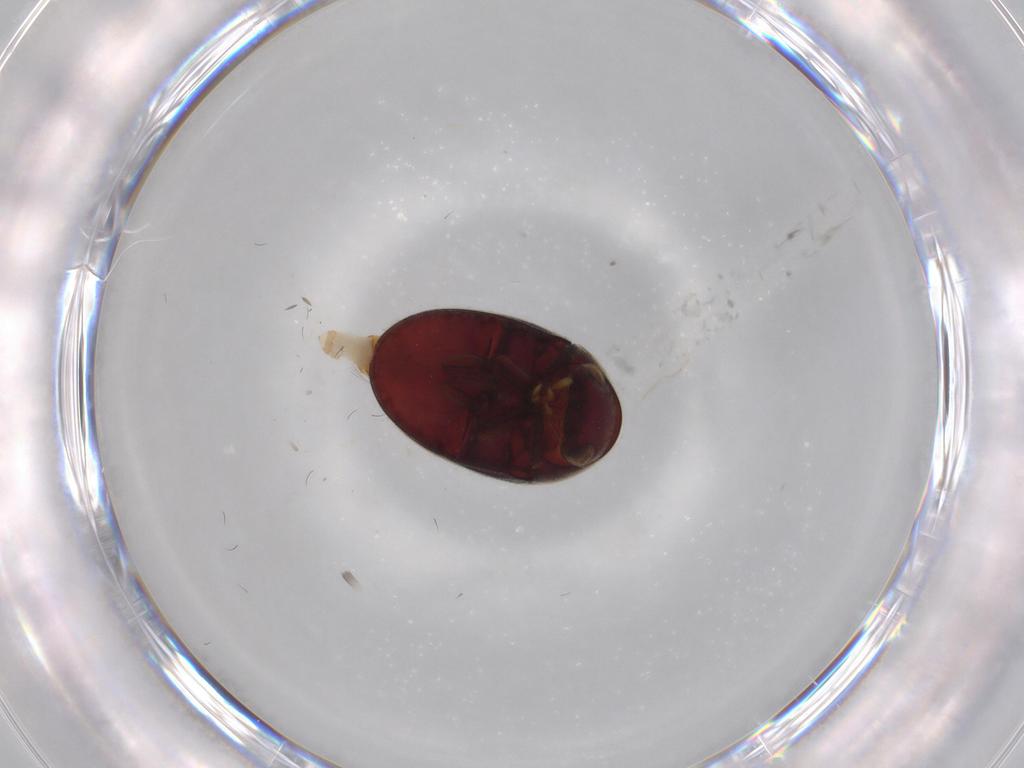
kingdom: Animalia
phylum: Arthropoda
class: Insecta
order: Coleoptera
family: Ptinidae
